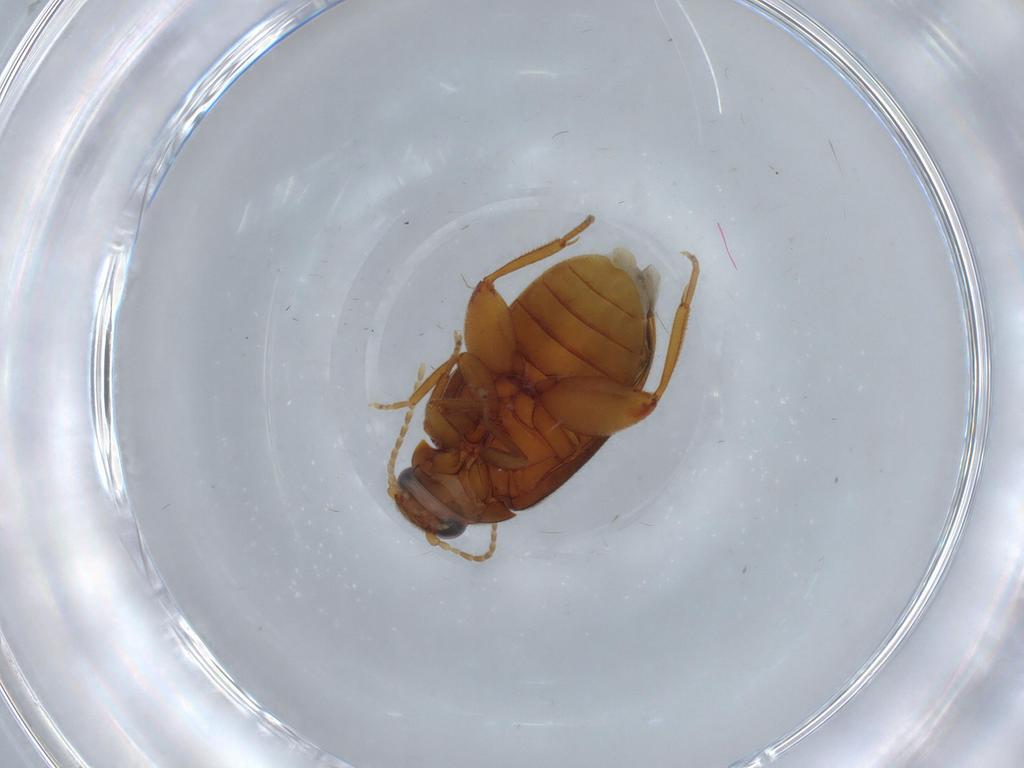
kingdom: Animalia
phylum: Arthropoda
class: Insecta
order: Coleoptera
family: Scirtidae
